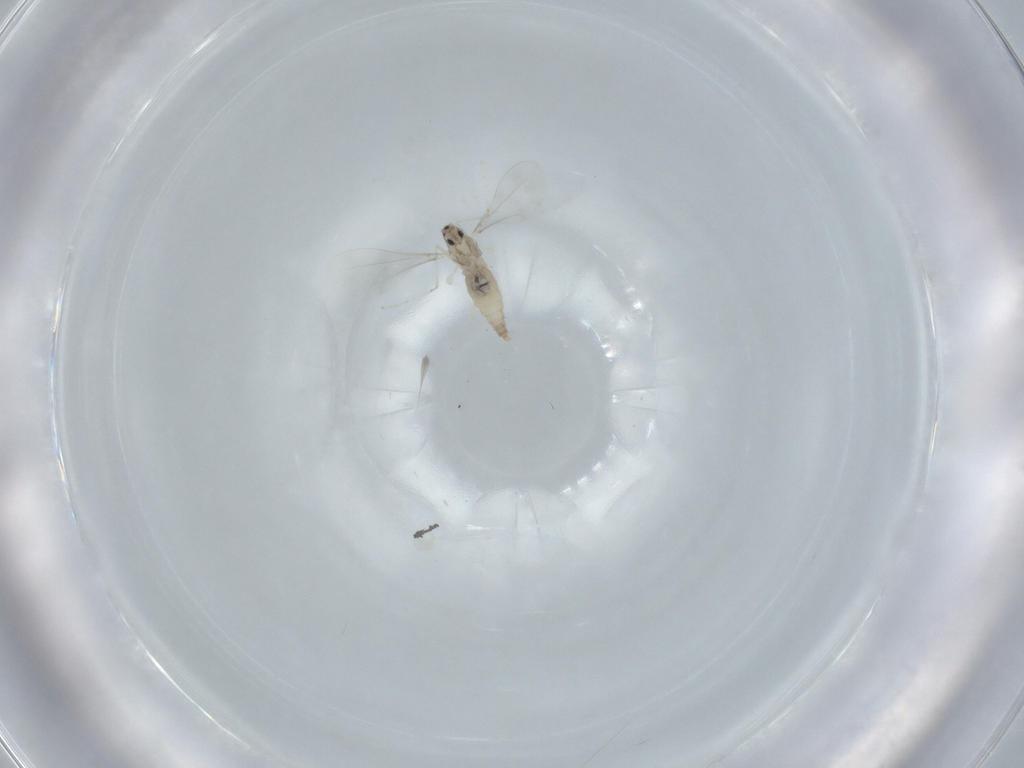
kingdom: Animalia
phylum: Arthropoda
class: Insecta
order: Diptera
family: Cecidomyiidae
